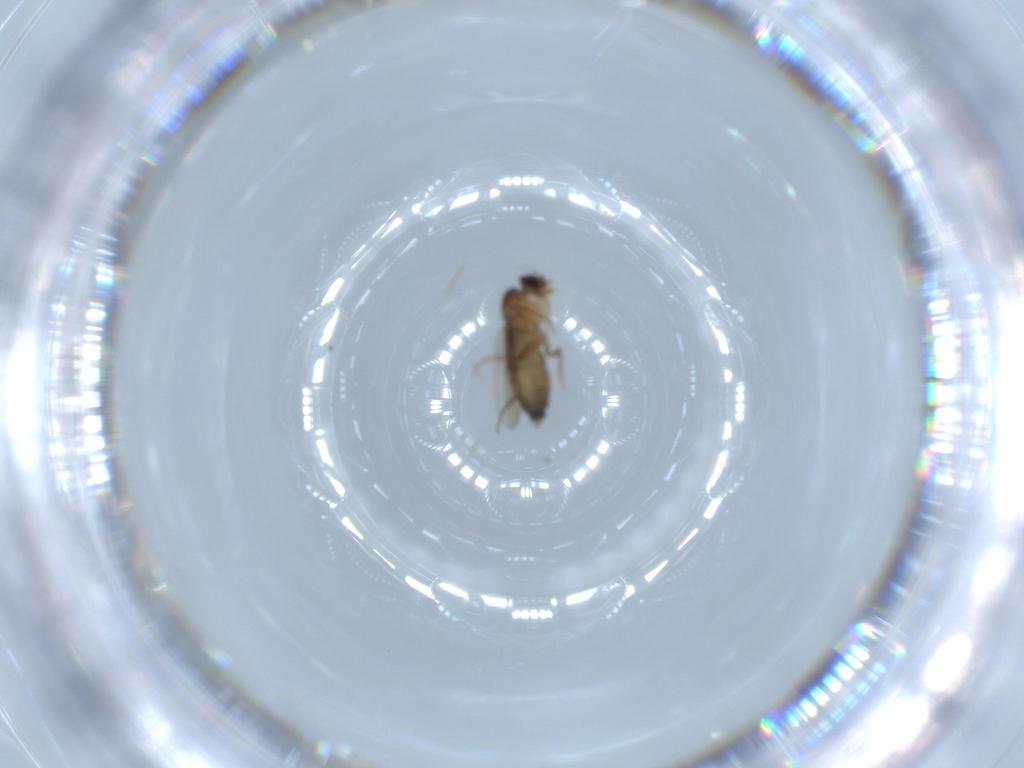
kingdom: Animalia
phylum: Arthropoda
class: Insecta
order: Diptera
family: Phoridae
